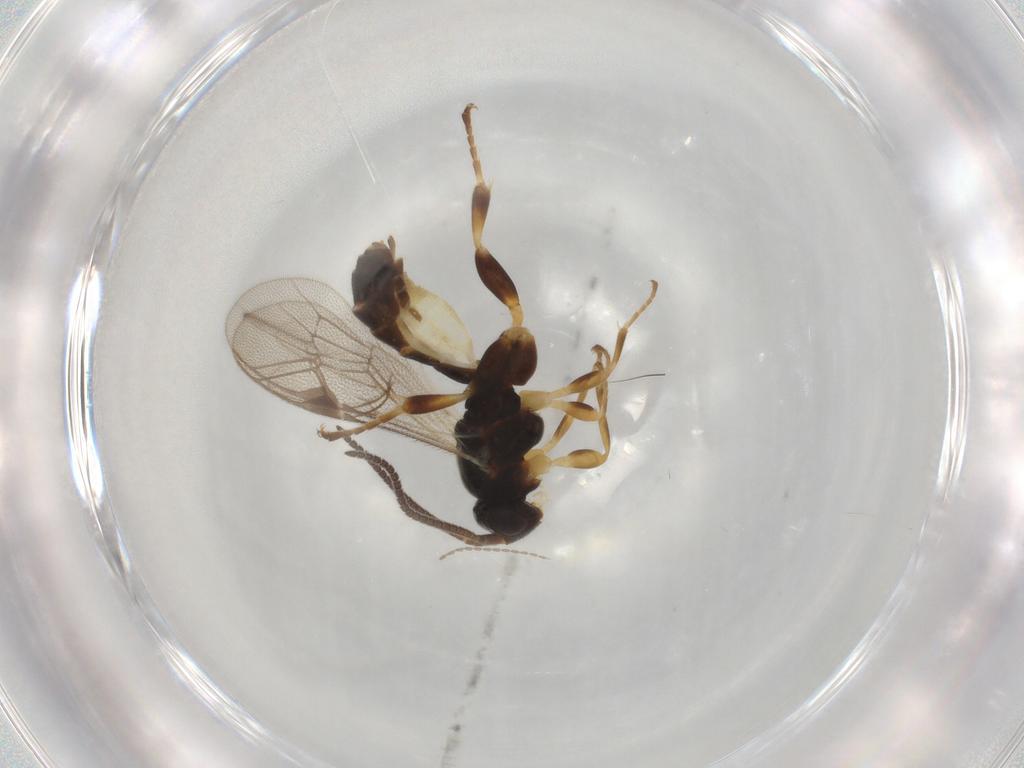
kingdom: Animalia
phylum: Arthropoda
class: Insecta
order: Hymenoptera
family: Ichneumonidae
